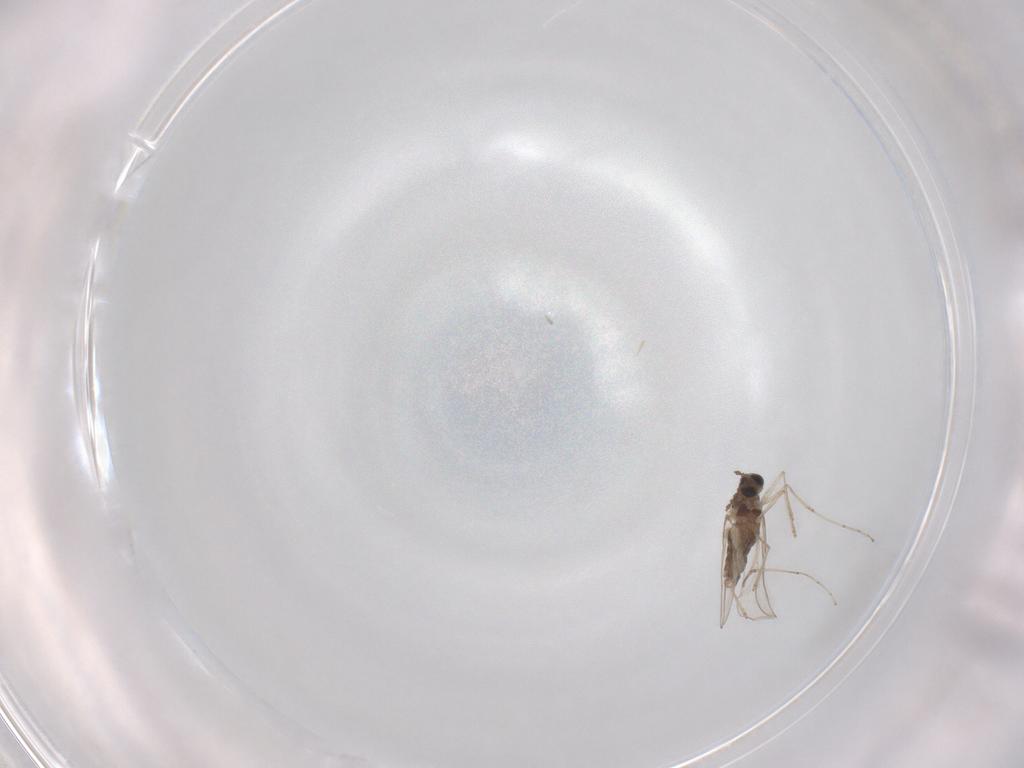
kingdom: Animalia
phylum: Arthropoda
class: Insecta
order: Diptera
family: Cecidomyiidae
